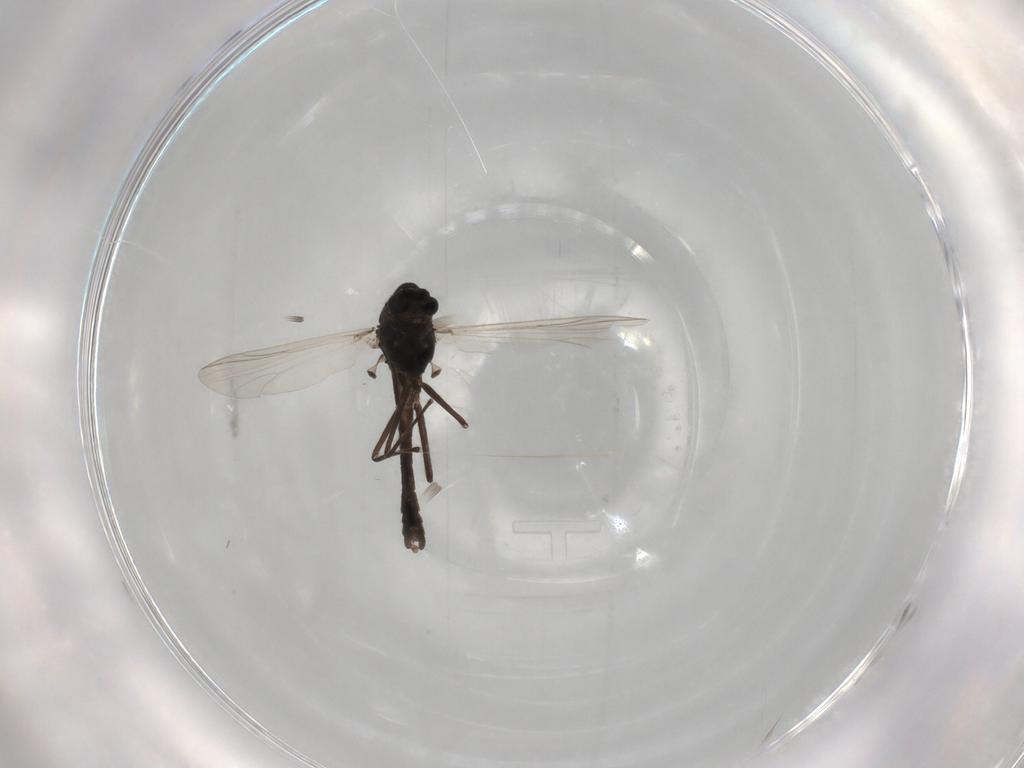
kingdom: Animalia
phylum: Arthropoda
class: Insecta
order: Diptera
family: Chironomidae
